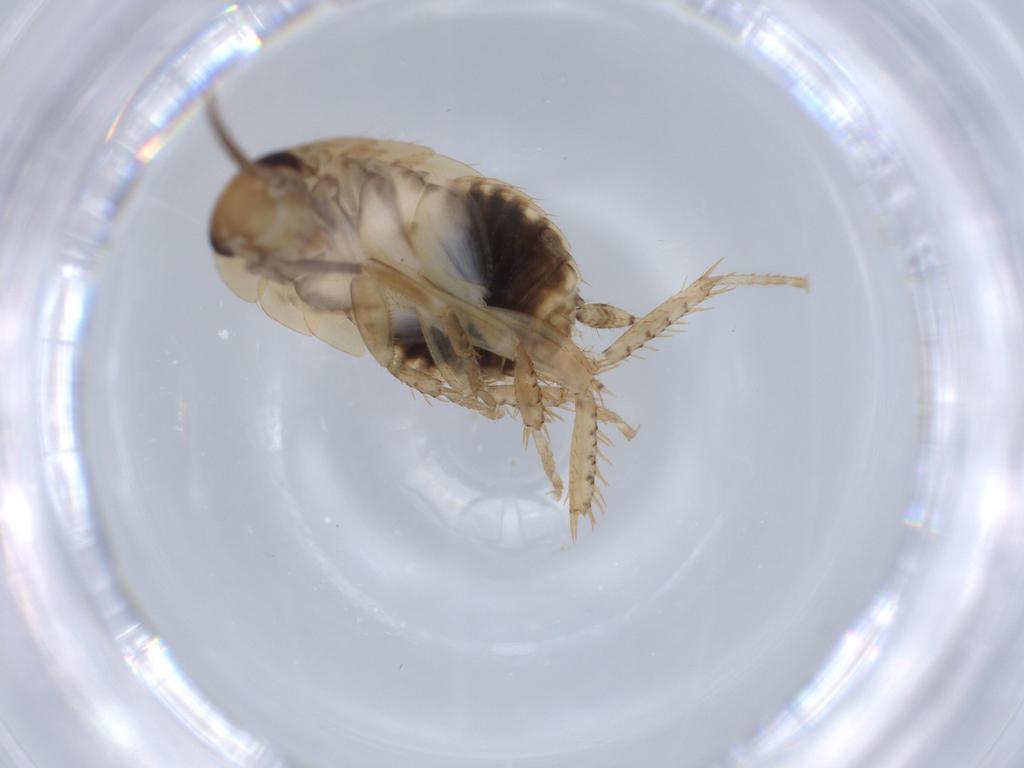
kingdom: Animalia
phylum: Arthropoda
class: Insecta
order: Blattodea
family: Ectobiidae
